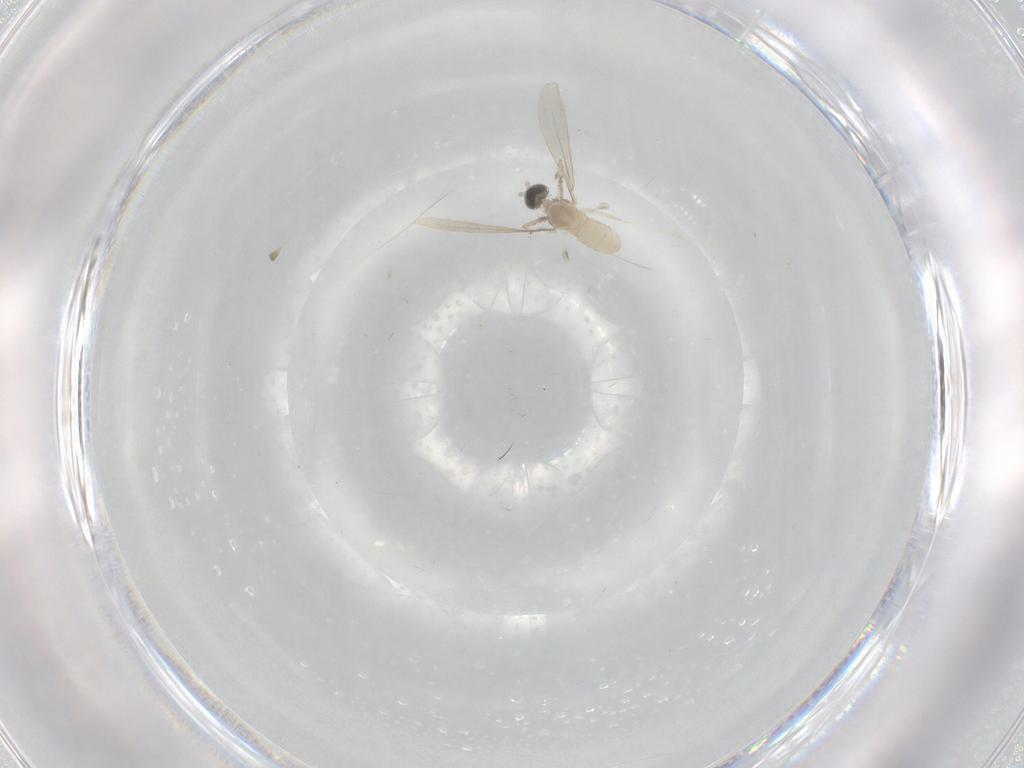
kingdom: Animalia
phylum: Arthropoda
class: Insecta
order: Diptera
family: Cecidomyiidae
